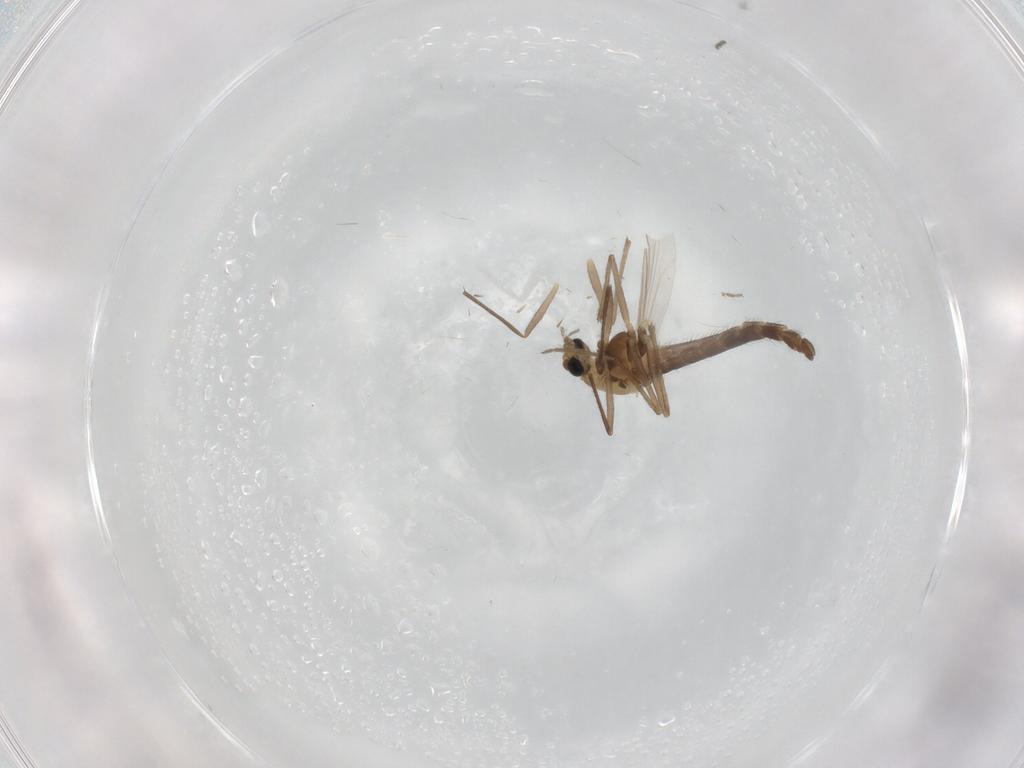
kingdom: Animalia
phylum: Arthropoda
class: Insecta
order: Diptera
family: Chironomidae
